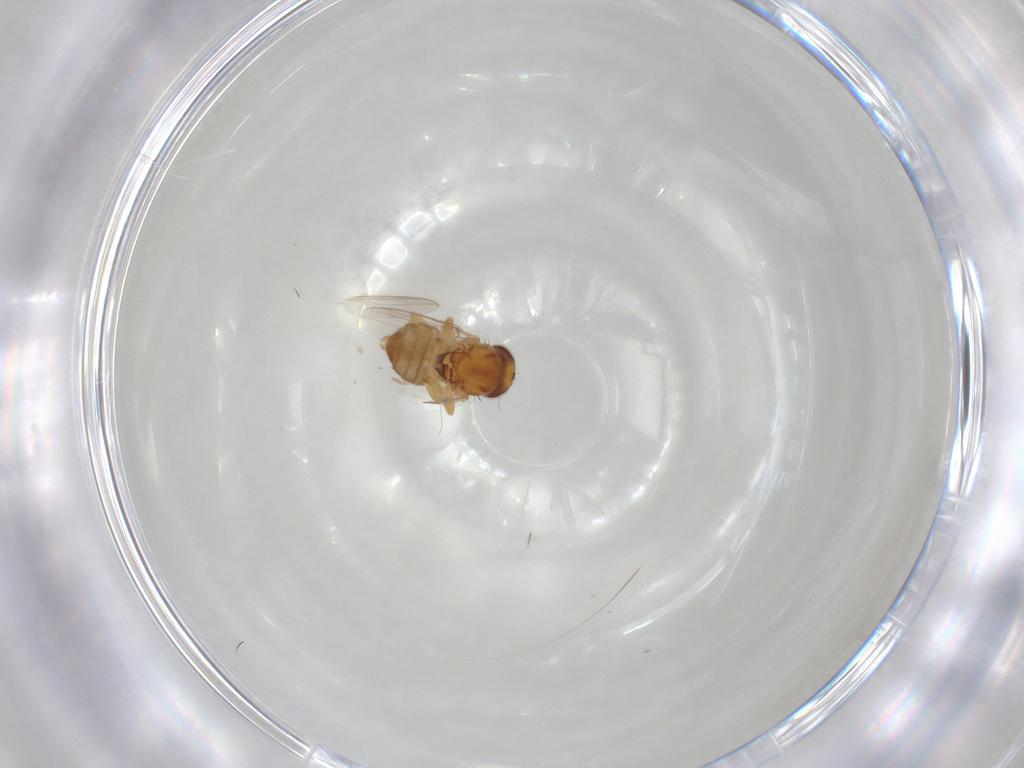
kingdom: Animalia
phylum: Arthropoda
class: Insecta
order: Diptera
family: Chloropidae
